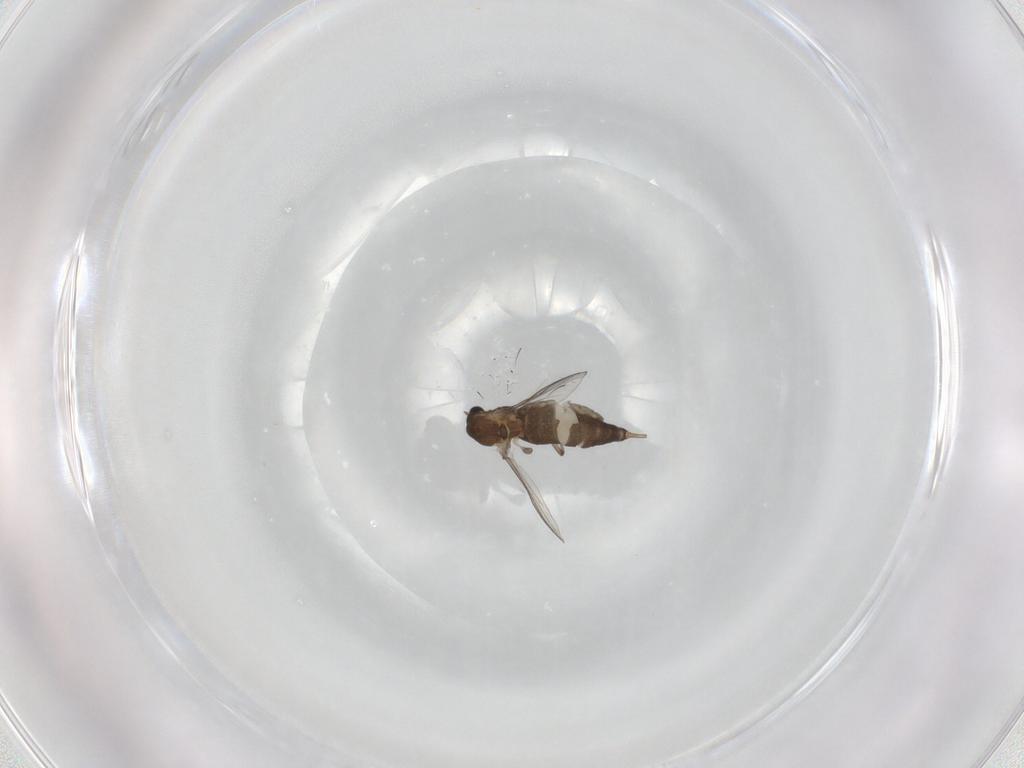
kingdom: Animalia
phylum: Arthropoda
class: Insecta
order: Diptera
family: Chironomidae
